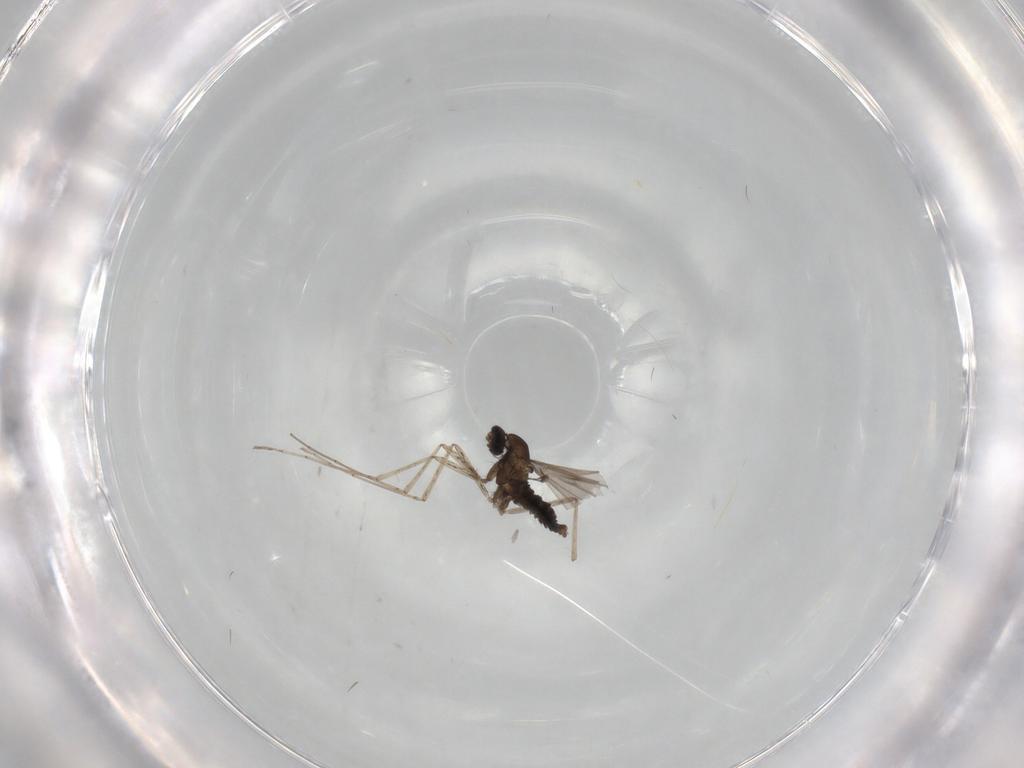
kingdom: Animalia
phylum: Arthropoda
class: Insecta
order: Diptera
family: Cecidomyiidae
